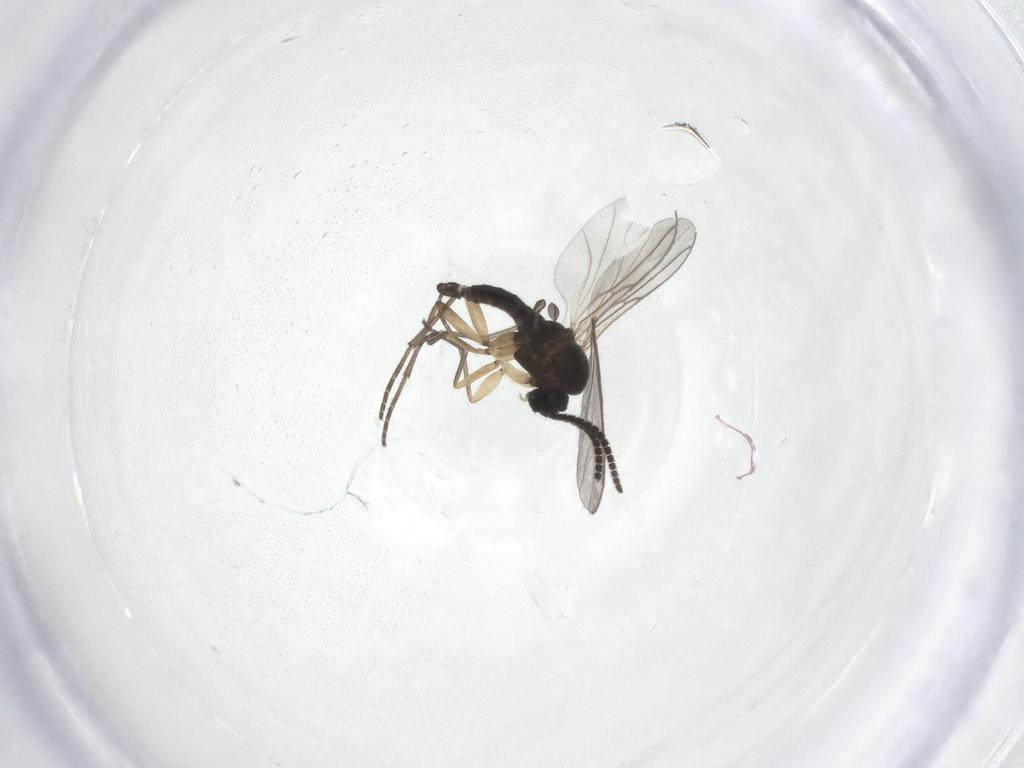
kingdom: Animalia
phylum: Arthropoda
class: Insecta
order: Diptera
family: Sciaridae
